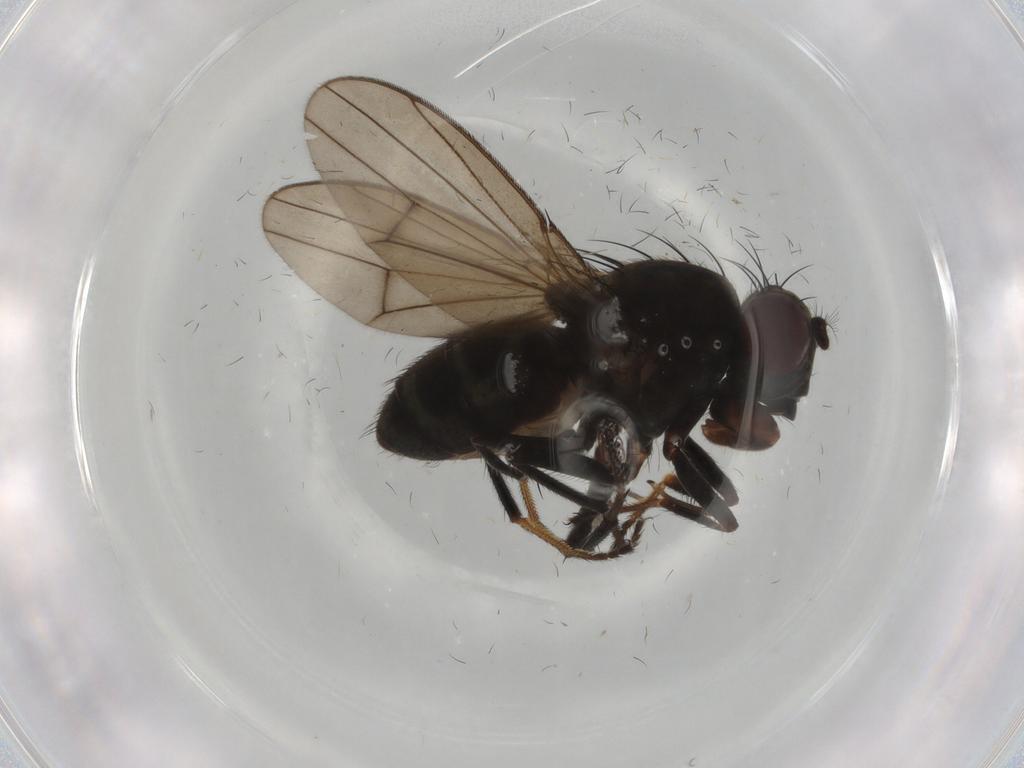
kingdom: Animalia
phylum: Arthropoda
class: Insecta
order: Diptera
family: Ephydridae
